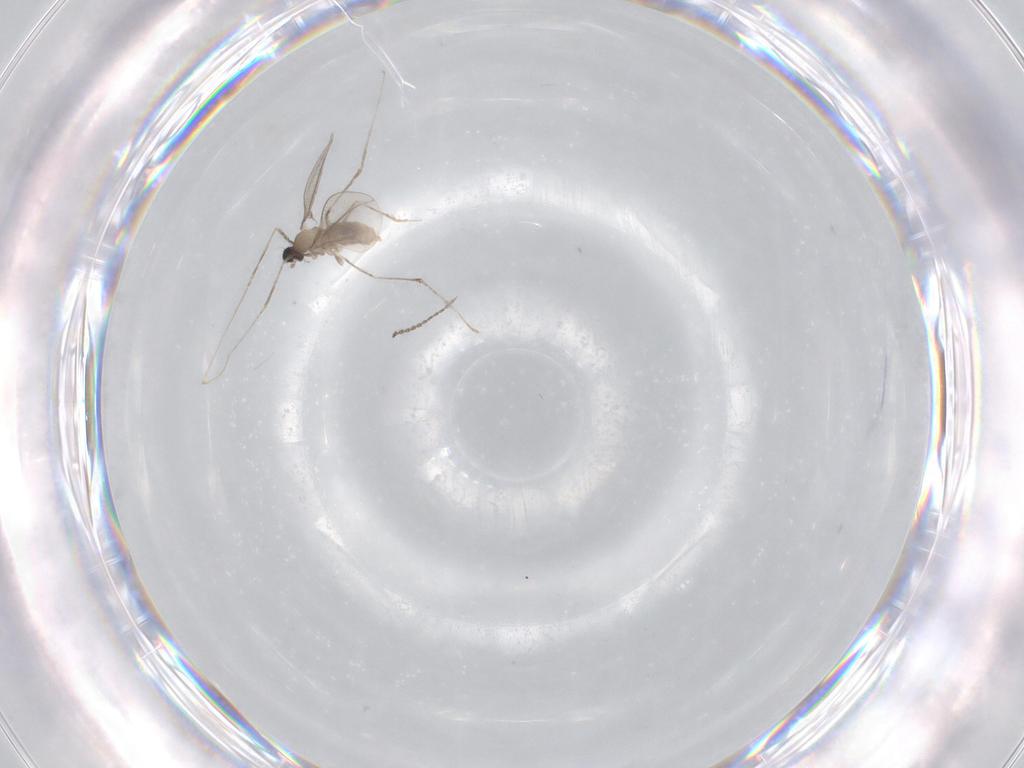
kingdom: Animalia
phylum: Arthropoda
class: Insecta
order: Diptera
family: Cecidomyiidae
